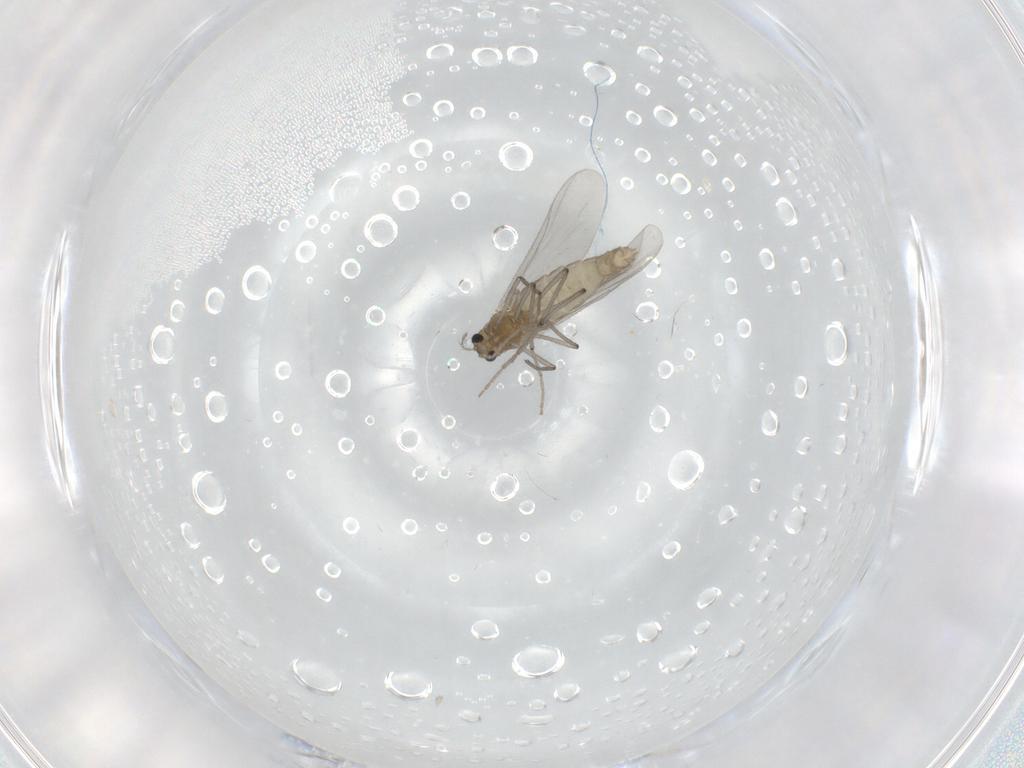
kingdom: Animalia
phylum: Arthropoda
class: Insecta
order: Diptera
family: Chironomidae
